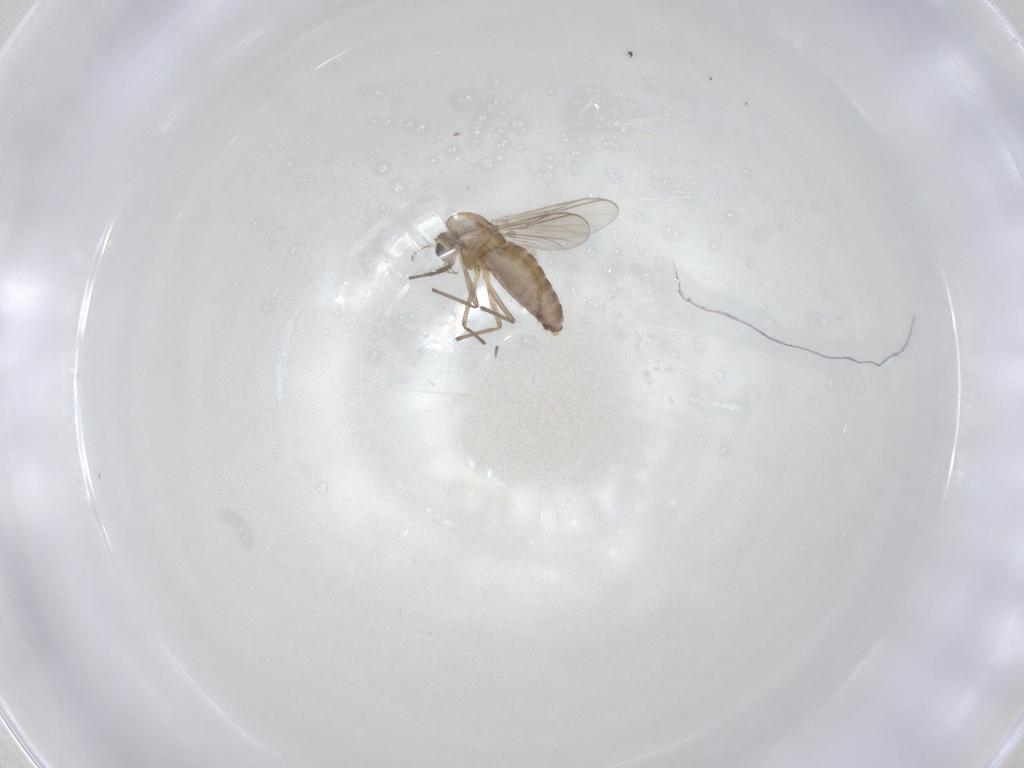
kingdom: Animalia
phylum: Arthropoda
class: Insecta
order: Diptera
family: Chironomidae
